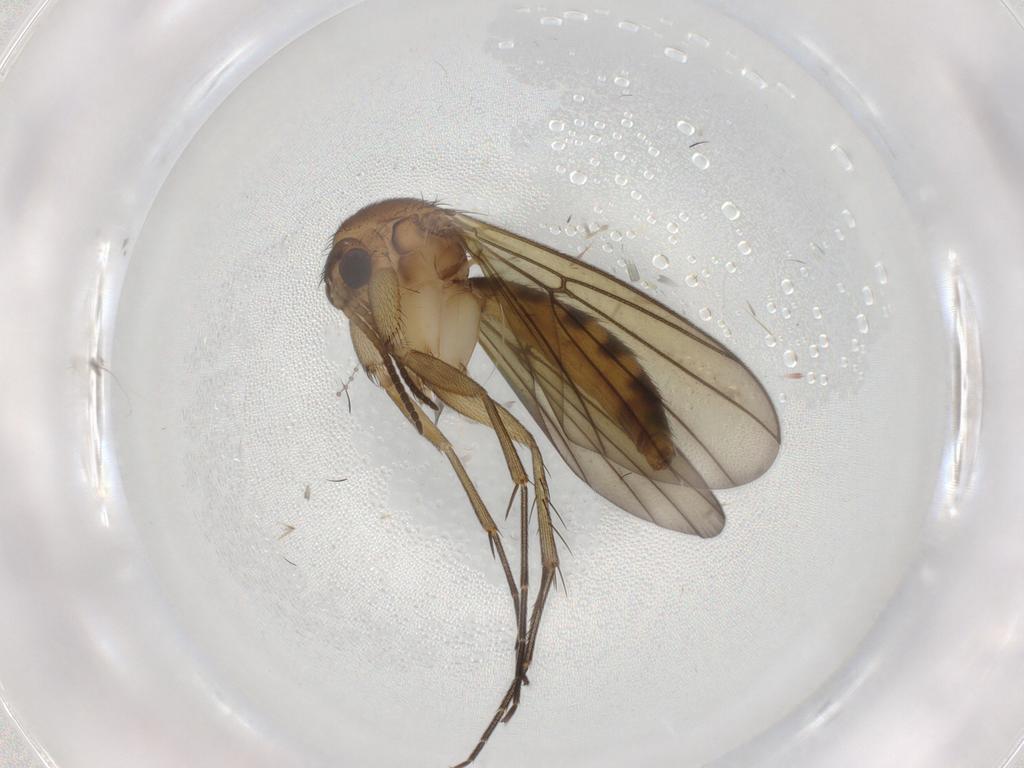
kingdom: Animalia
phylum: Arthropoda
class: Insecta
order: Diptera
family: Mycetophilidae
